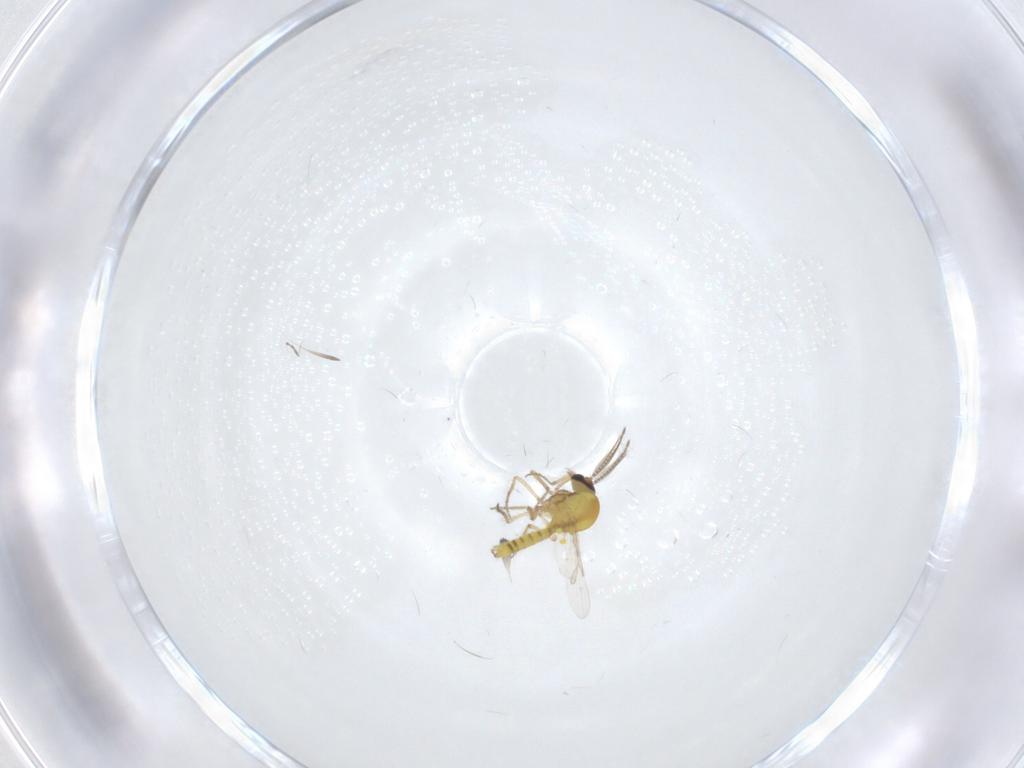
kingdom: Animalia
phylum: Arthropoda
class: Insecta
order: Diptera
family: Ceratopogonidae
